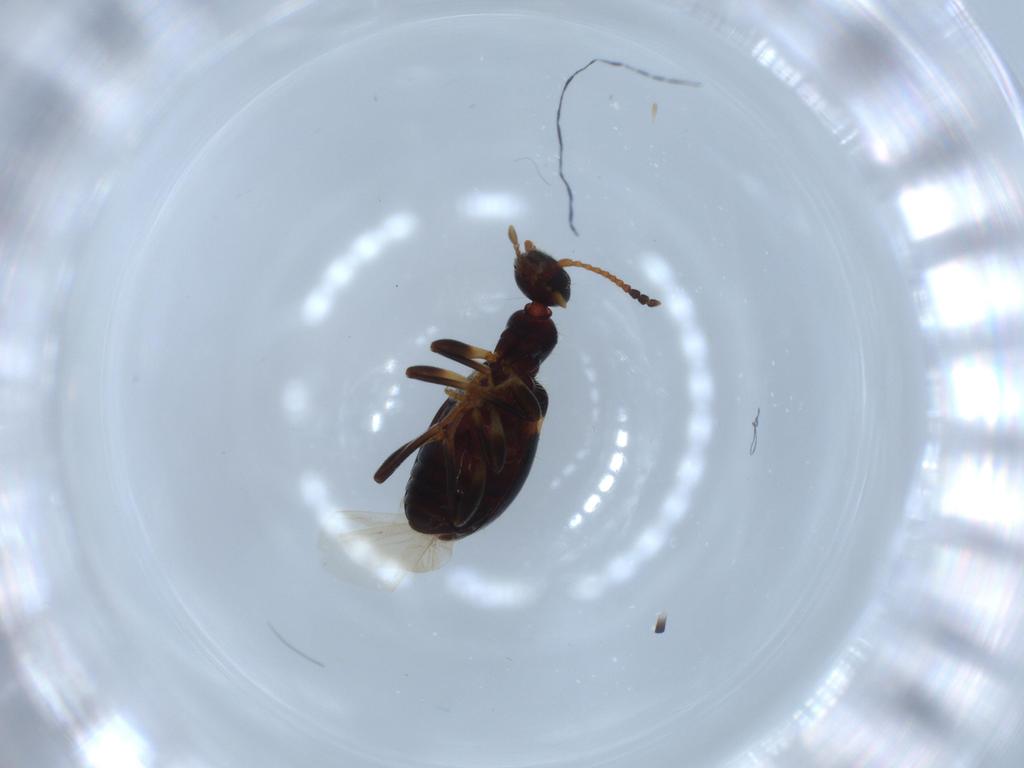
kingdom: Animalia
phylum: Arthropoda
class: Insecta
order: Coleoptera
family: Anthicidae
